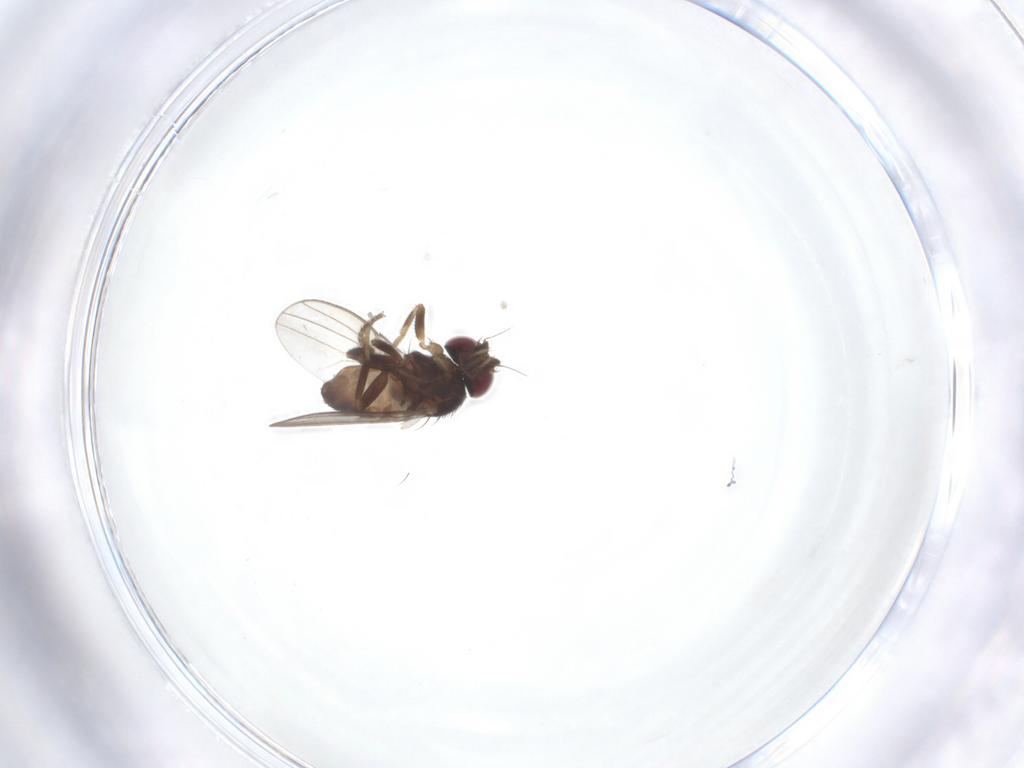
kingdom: Animalia
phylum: Arthropoda
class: Insecta
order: Diptera
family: Milichiidae
